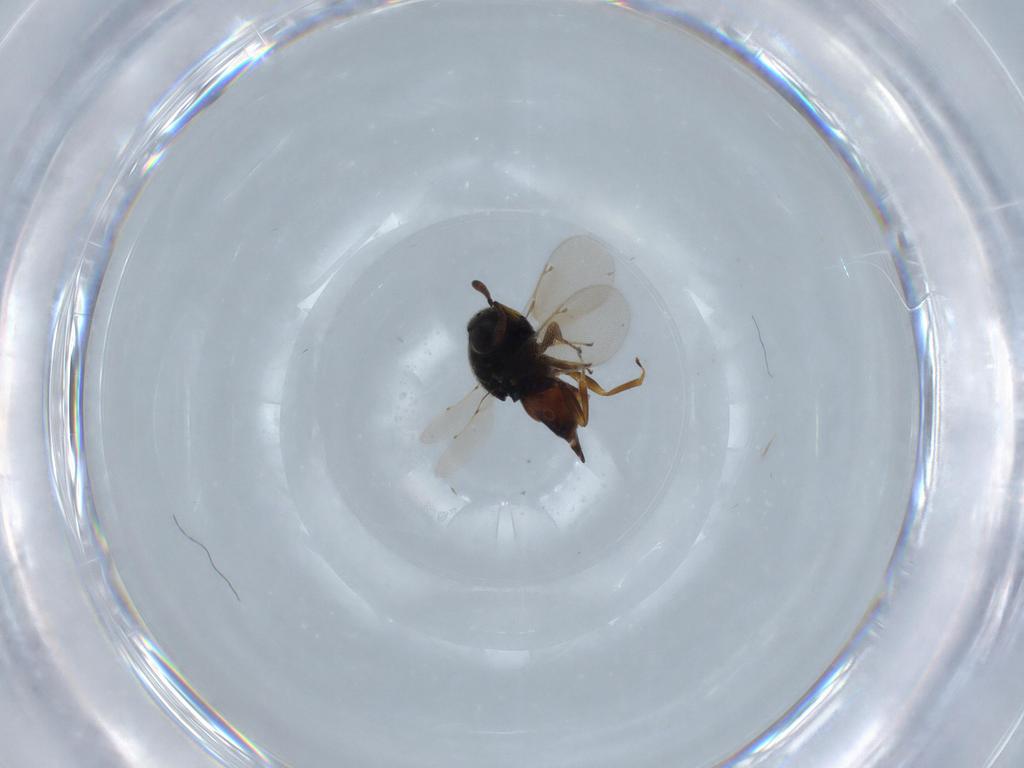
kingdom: Animalia
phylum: Arthropoda
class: Insecta
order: Hymenoptera
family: Aphelinidae
